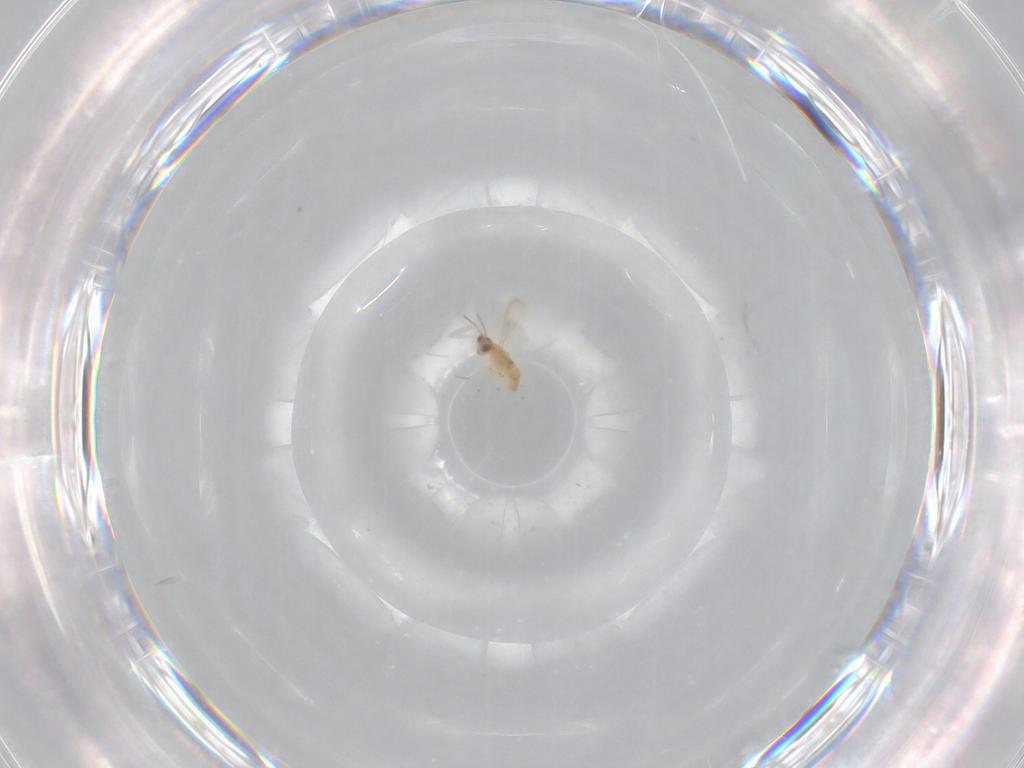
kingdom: Animalia
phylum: Arthropoda
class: Insecta
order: Hymenoptera
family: Aphelinidae
